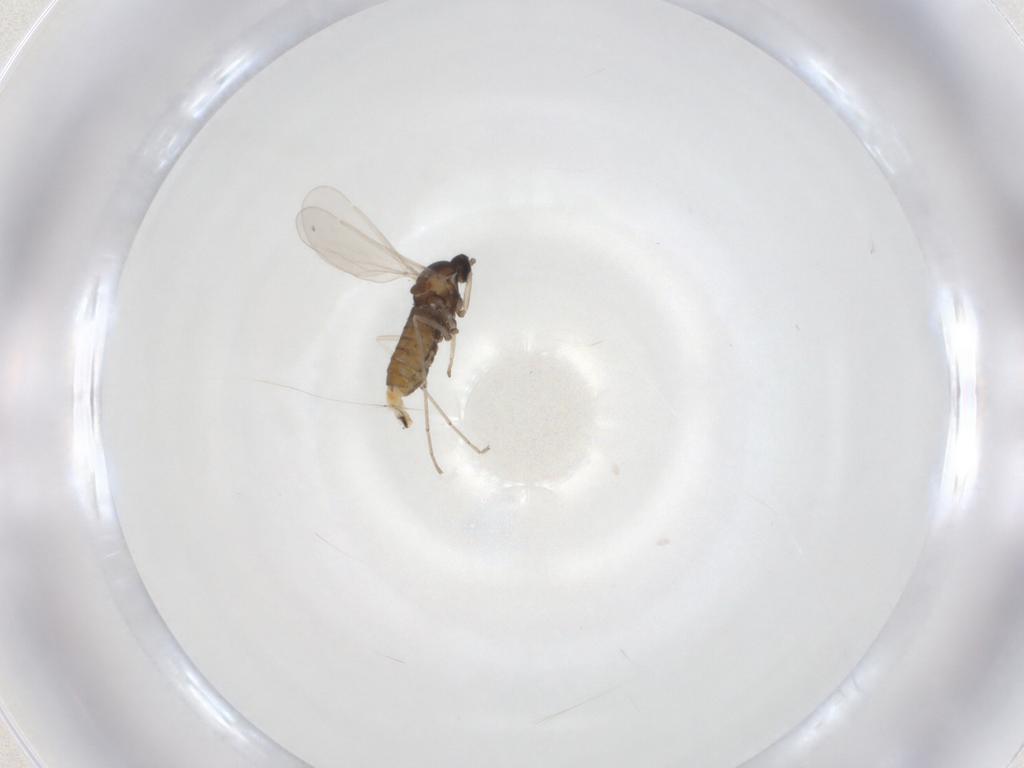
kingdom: Animalia
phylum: Arthropoda
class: Insecta
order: Diptera
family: Cecidomyiidae
